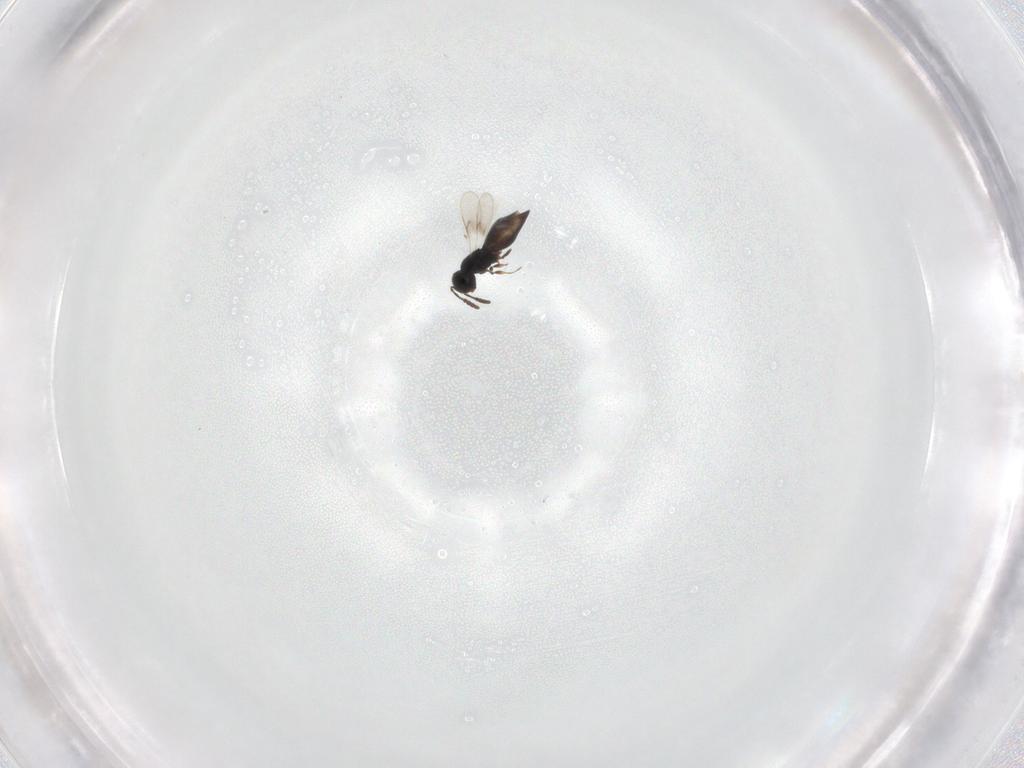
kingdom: Animalia
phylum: Arthropoda
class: Insecta
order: Hymenoptera
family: Scelionidae
